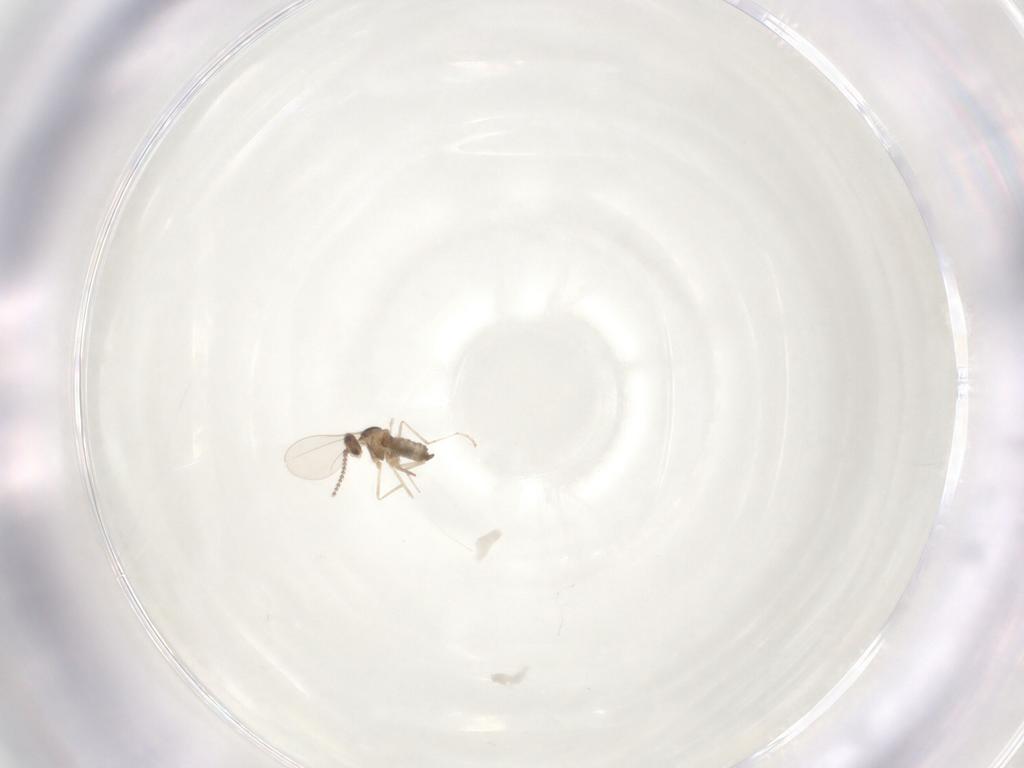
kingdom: Animalia
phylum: Arthropoda
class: Insecta
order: Diptera
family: Cecidomyiidae
